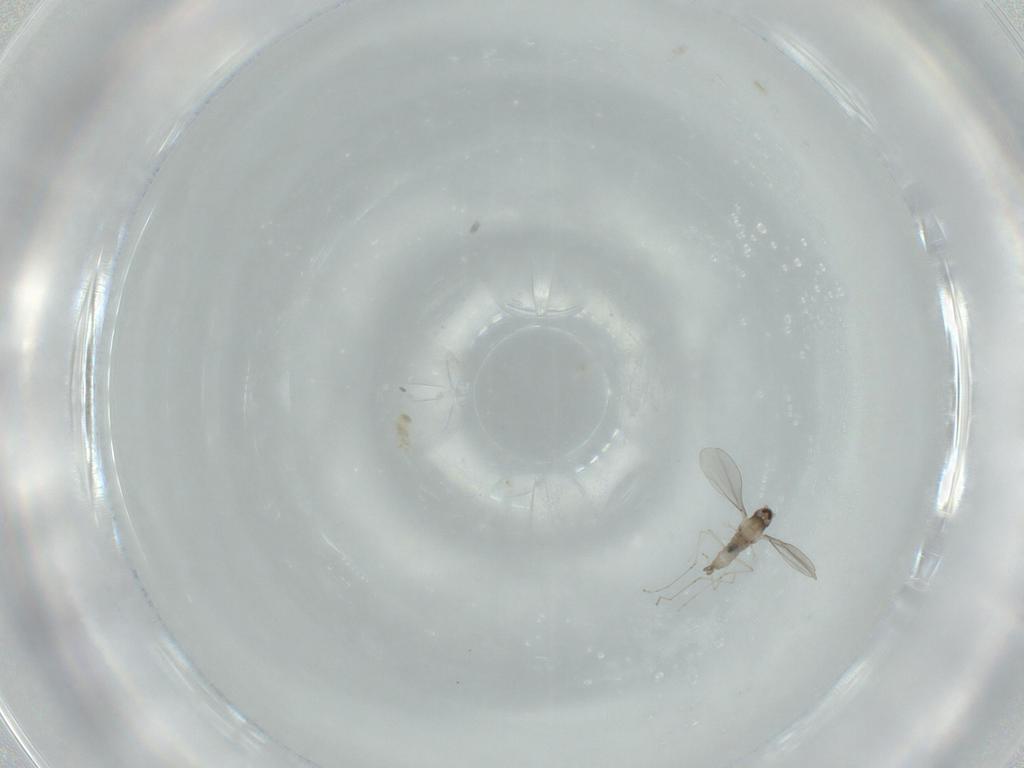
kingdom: Animalia
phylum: Arthropoda
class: Insecta
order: Diptera
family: Cecidomyiidae
